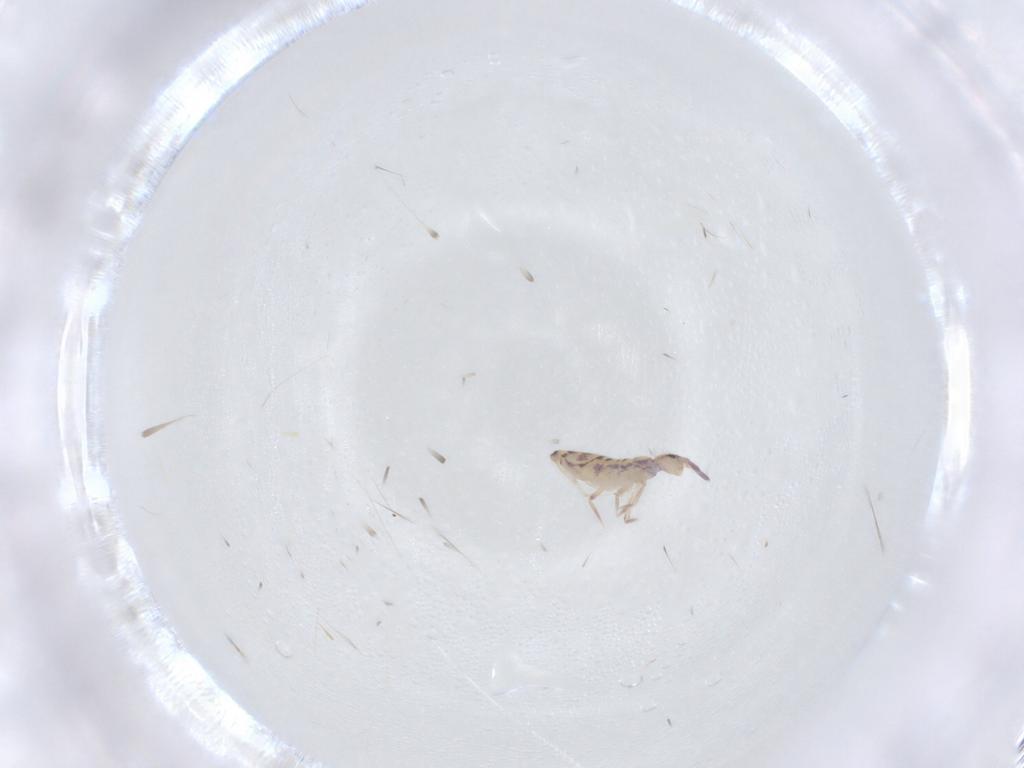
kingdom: Animalia
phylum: Arthropoda
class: Collembola
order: Entomobryomorpha
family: Entomobryidae
